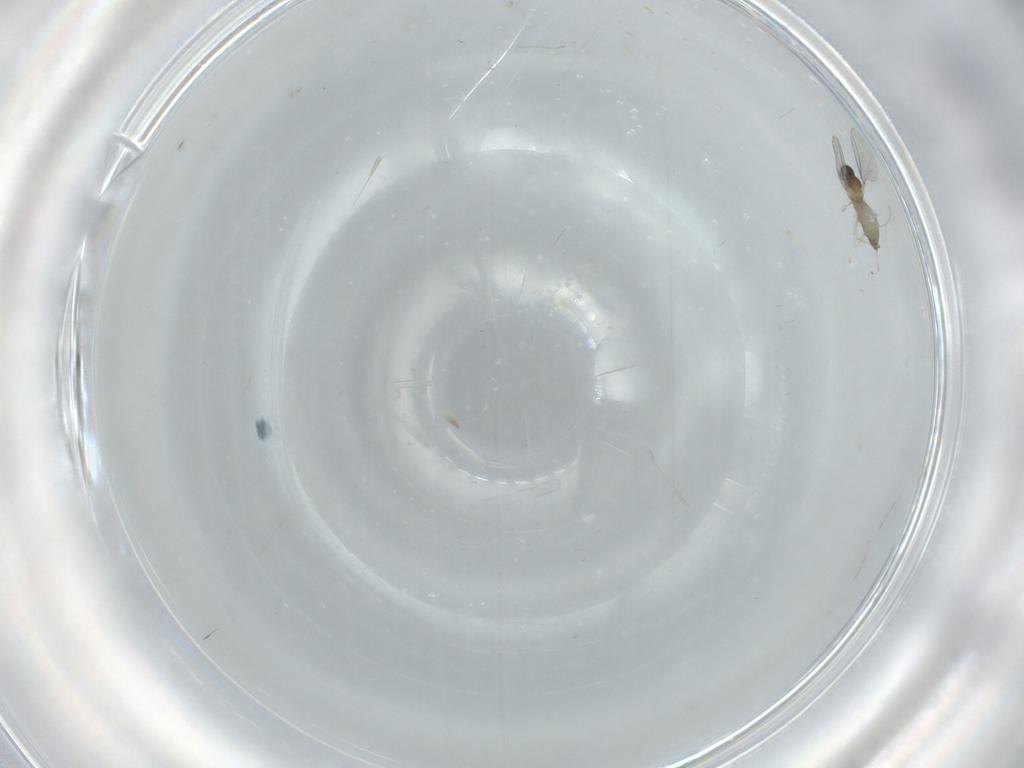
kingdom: Animalia
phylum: Arthropoda
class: Insecta
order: Diptera
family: Cecidomyiidae
